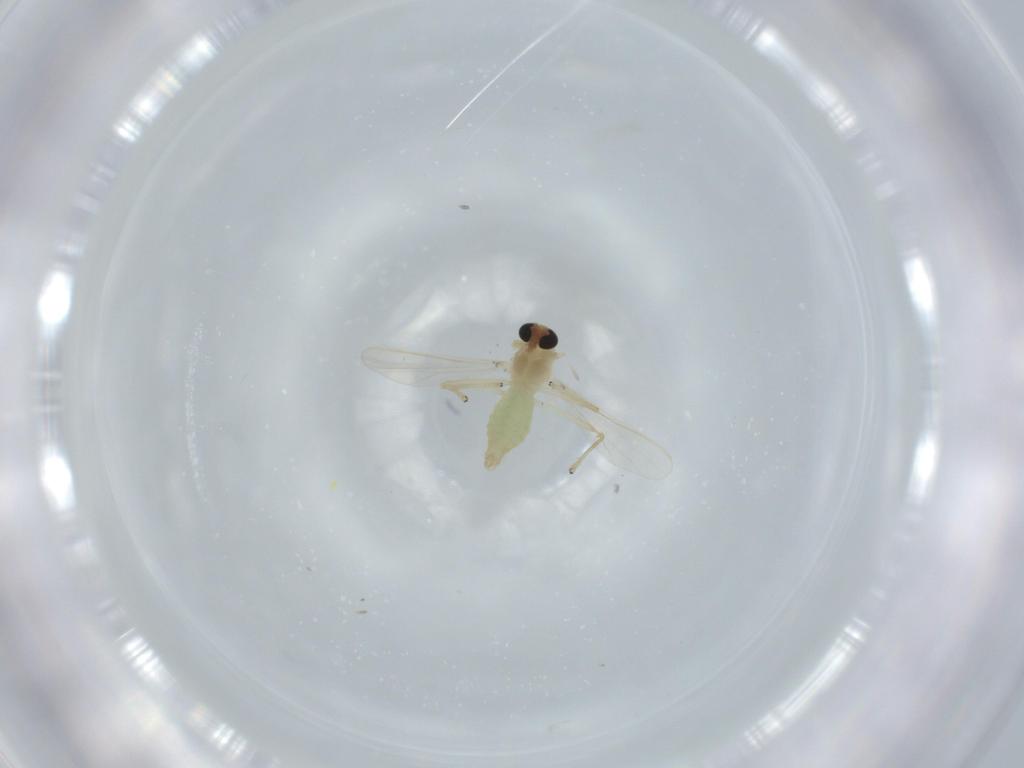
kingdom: Animalia
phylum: Arthropoda
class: Insecta
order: Diptera
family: Chironomidae
